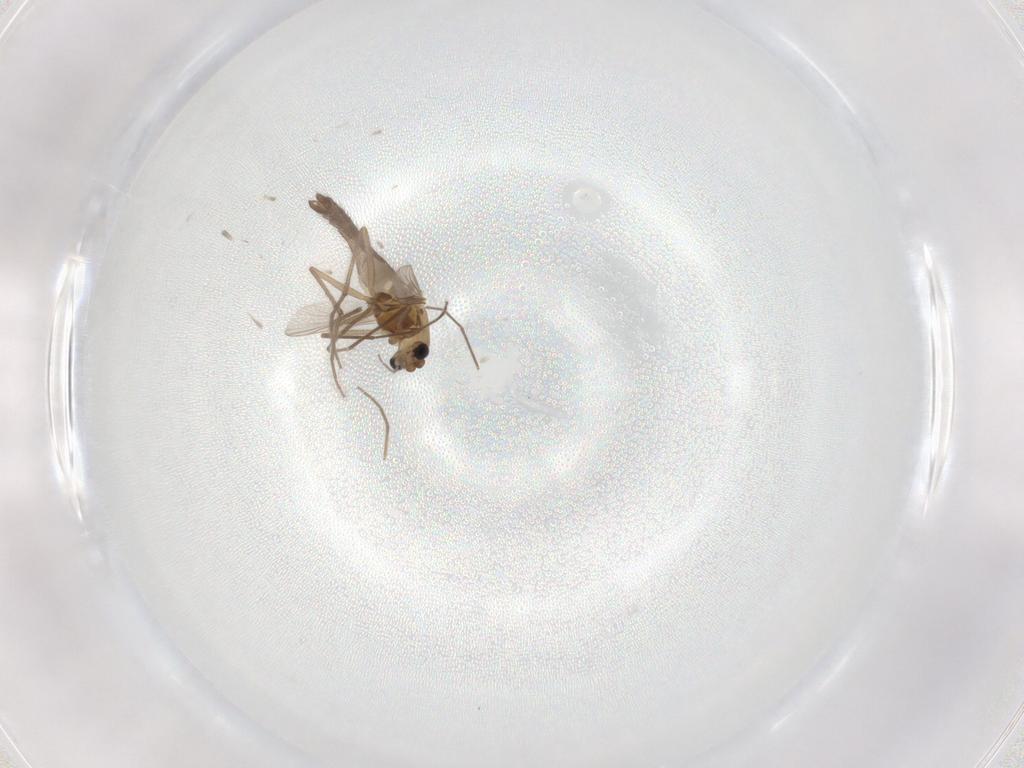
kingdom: Animalia
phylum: Arthropoda
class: Insecta
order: Diptera
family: Chironomidae
